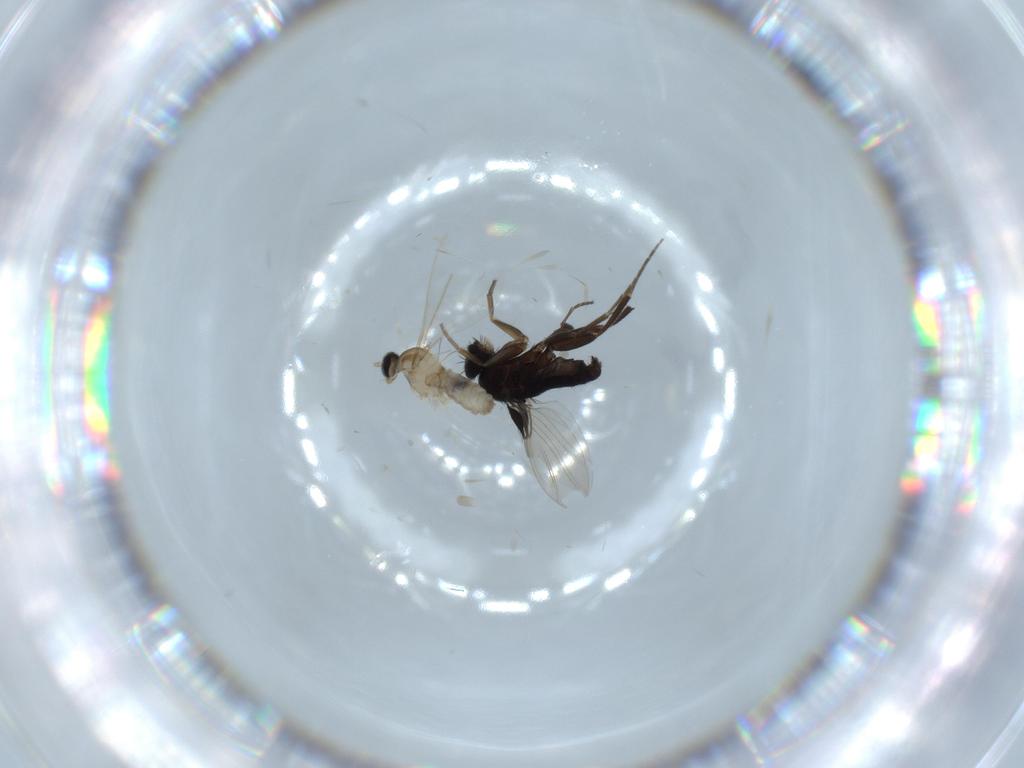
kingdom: Animalia
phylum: Arthropoda
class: Insecta
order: Diptera
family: Cecidomyiidae
